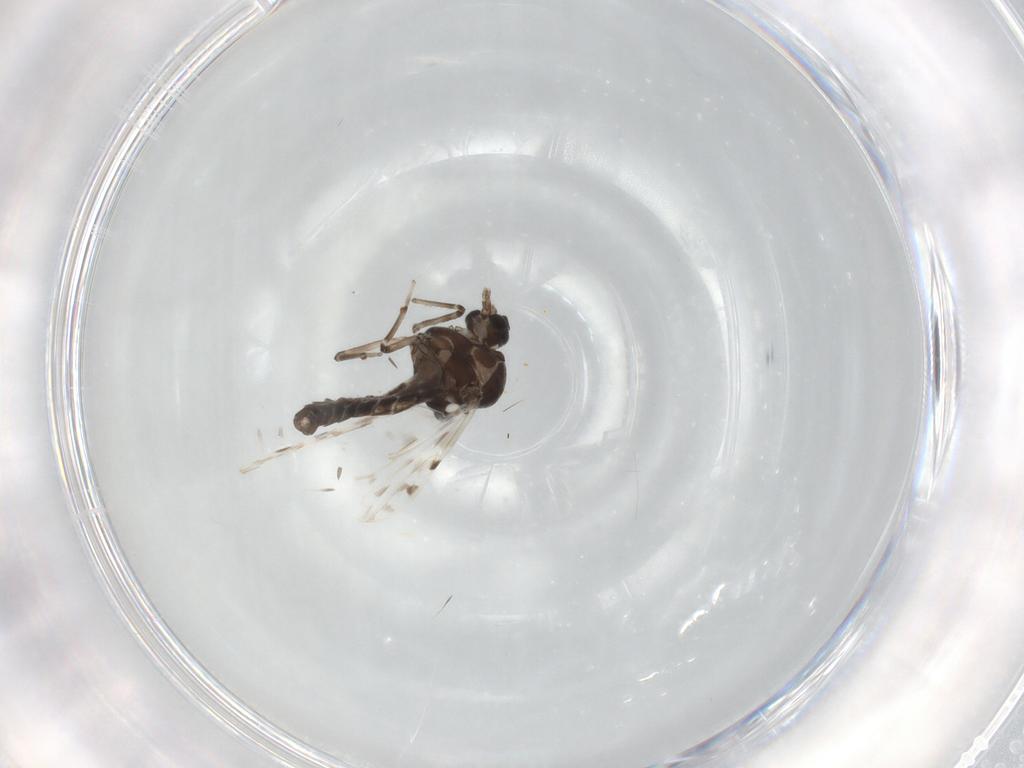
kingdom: Animalia
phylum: Arthropoda
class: Insecta
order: Diptera
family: Ceratopogonidae
